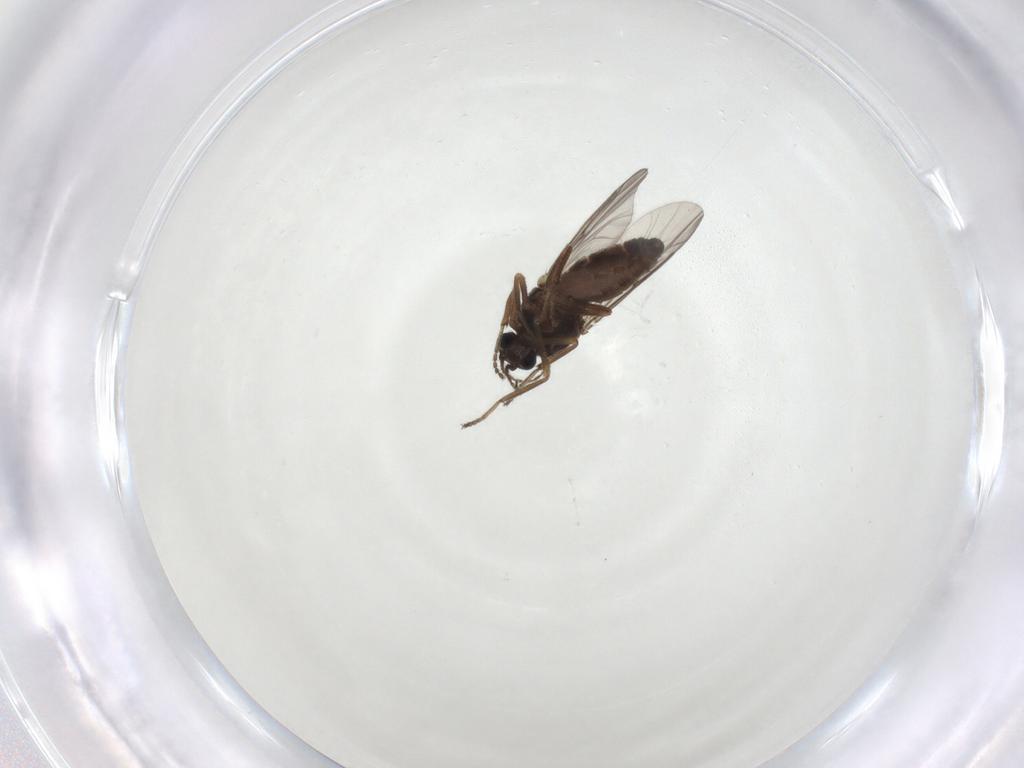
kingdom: Animalia
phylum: Arthropoda
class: Insecta
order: Diptera
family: Ceratopogonidae
